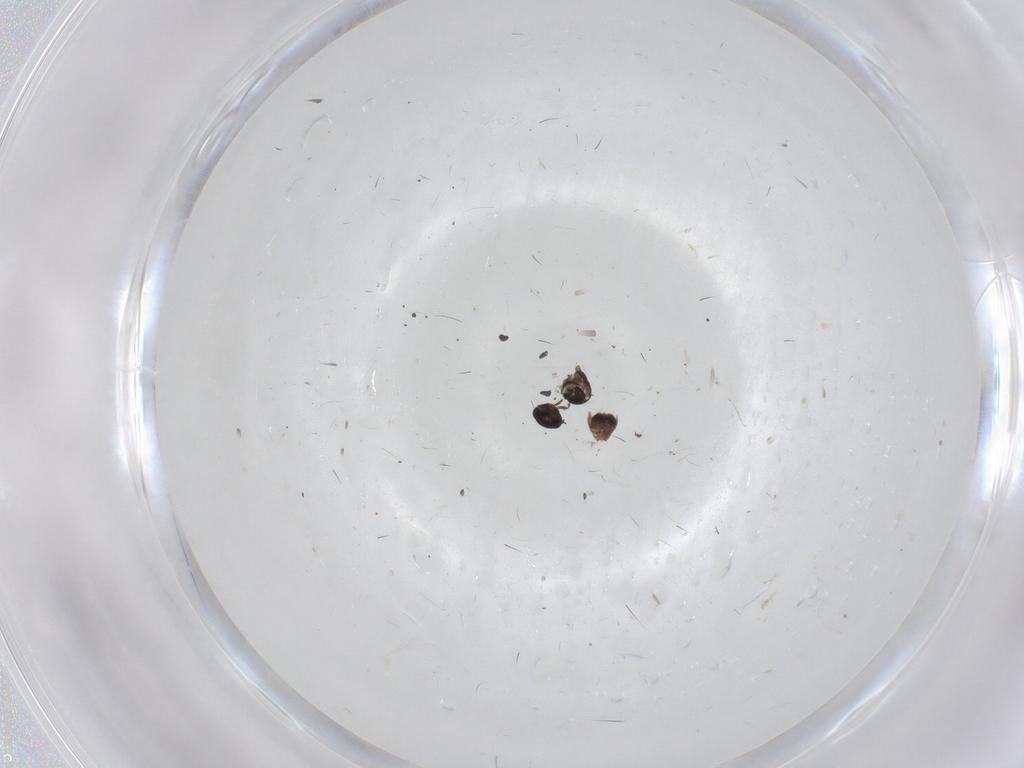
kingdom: Animalia
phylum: Arthropoda
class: Insecta
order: Hymenoptera
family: Scelionidae
